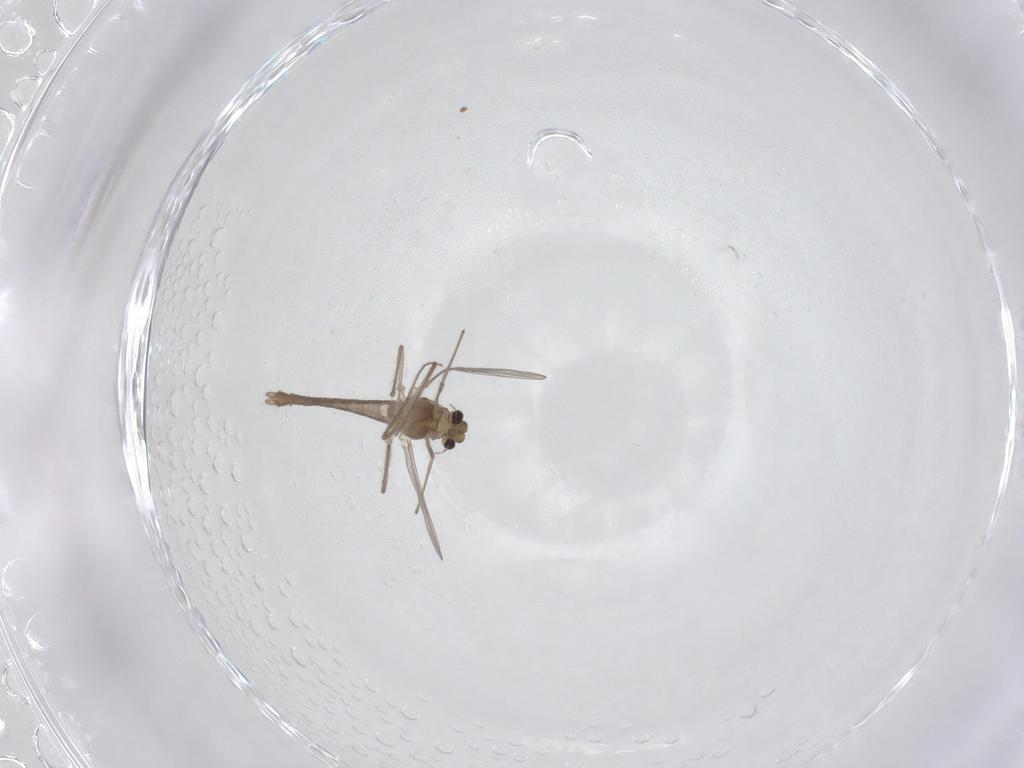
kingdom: Animalia
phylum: Arthropoda
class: Insecta
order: Diptera
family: Chironomidae
